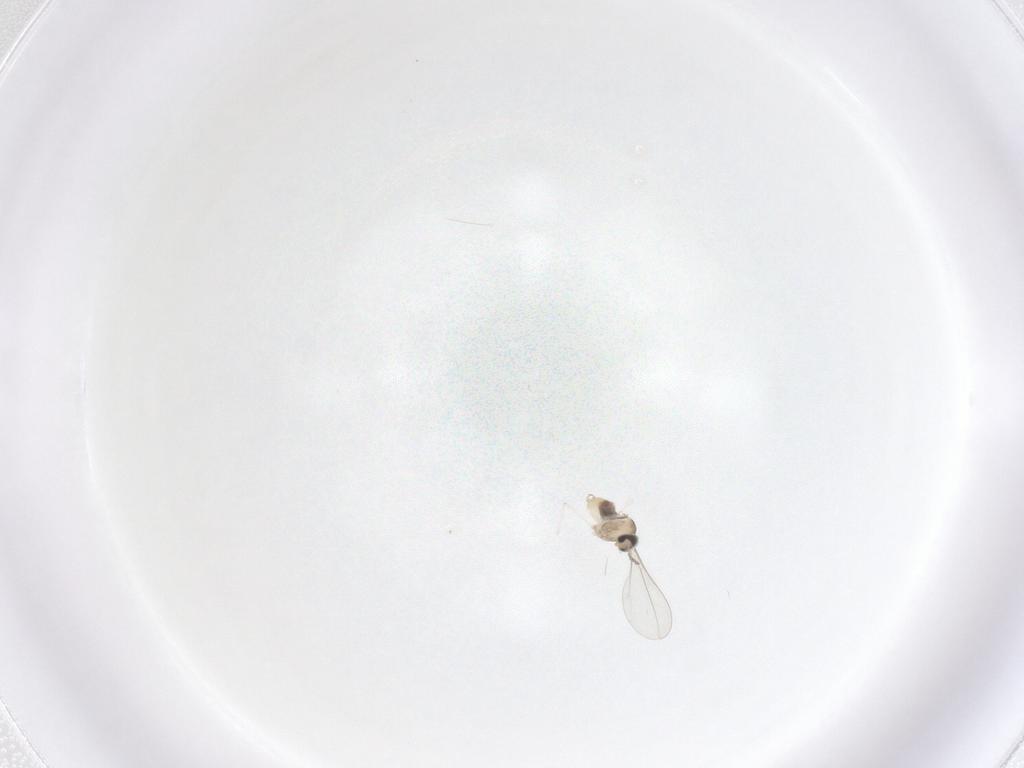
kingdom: Animalia
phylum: Arthropoda
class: Insecta
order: Diptera
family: Cecidomyiidae
